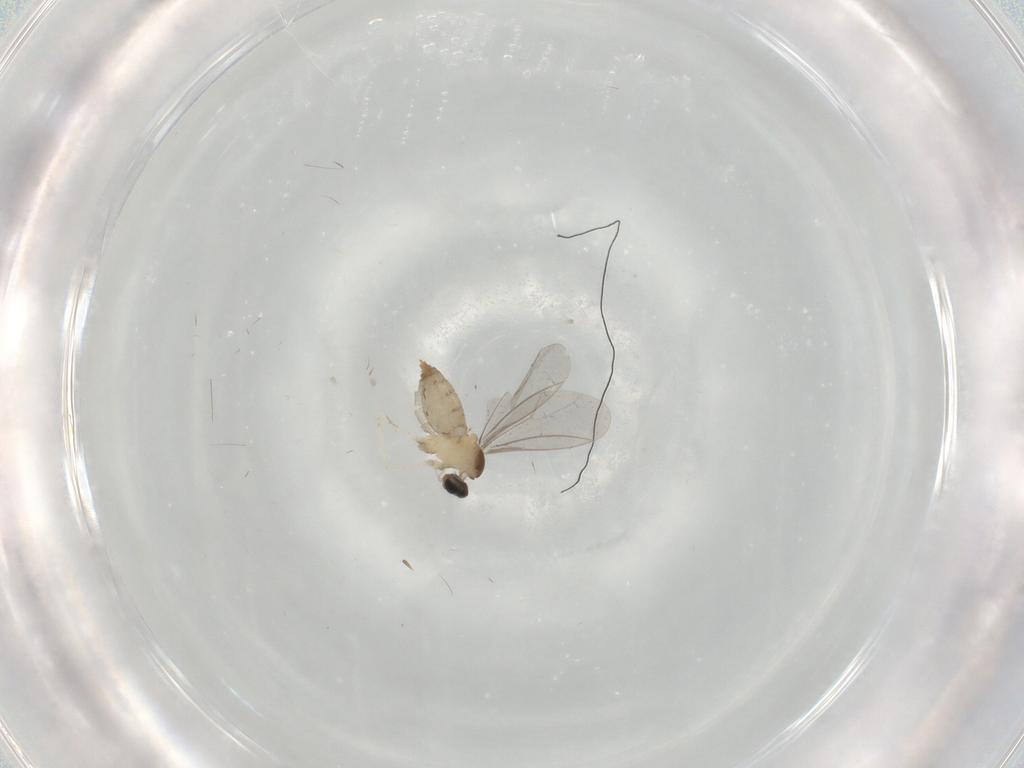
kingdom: Animalia
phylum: Arthropoda
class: Insecta
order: Diptera
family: Cecidomyiidae
